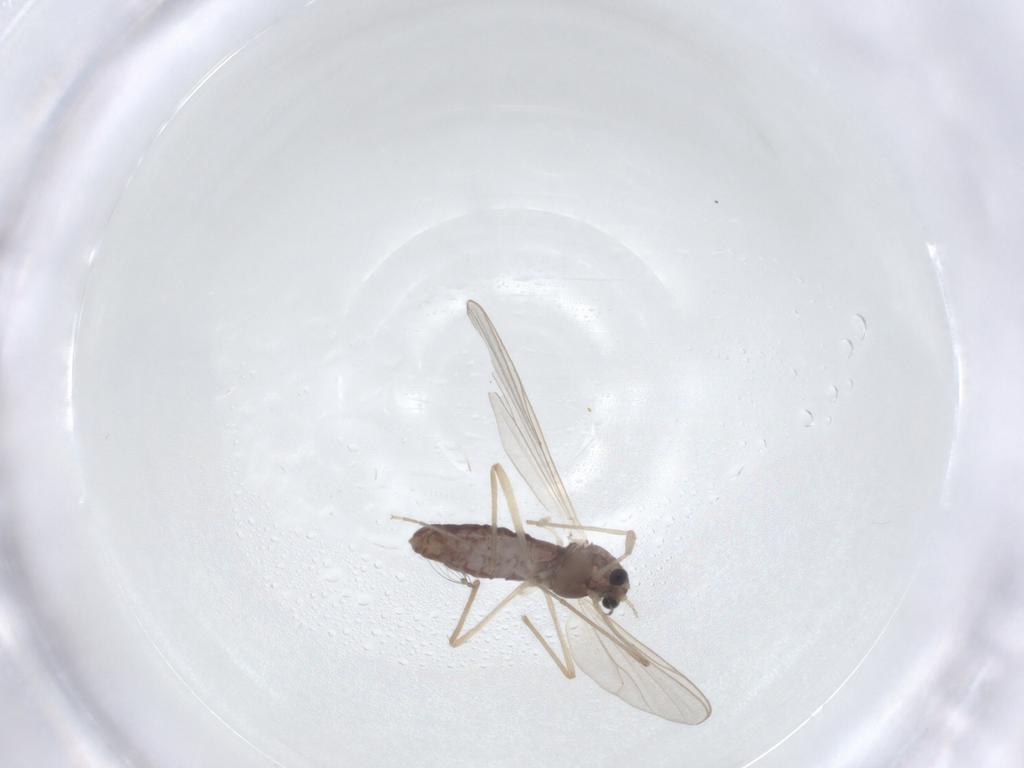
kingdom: Animalia
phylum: Arthropoda
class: Insecta
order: Diptera
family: Chironomidae
